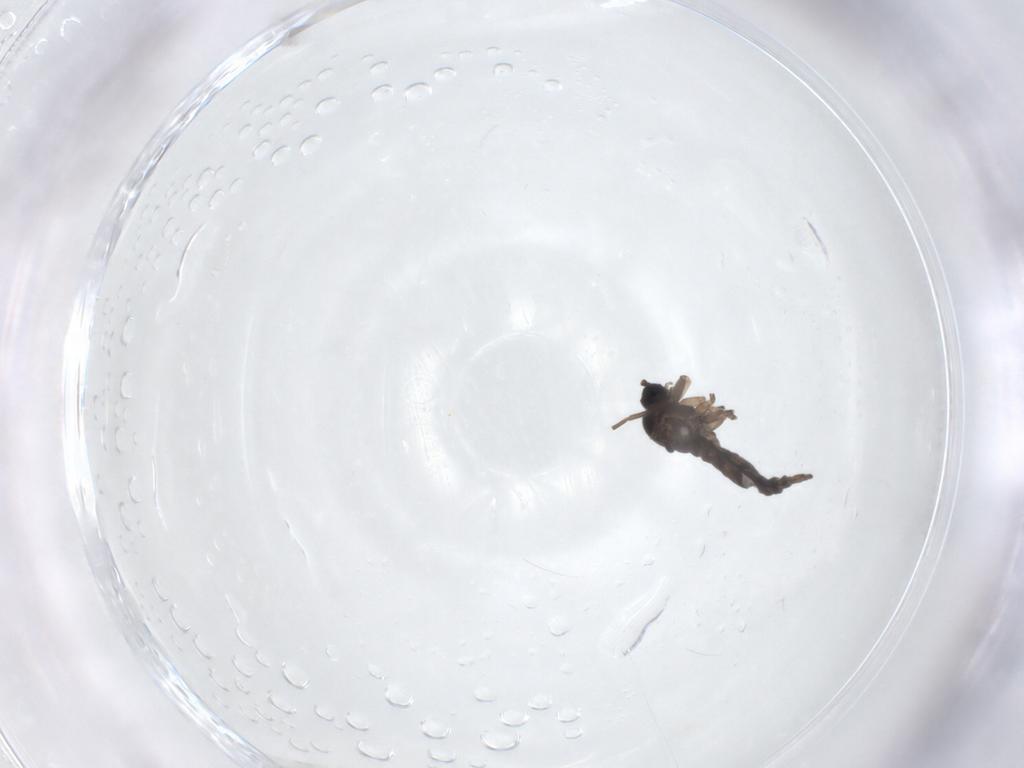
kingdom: Animalia
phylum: Arthropoda
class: Insecta
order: Diptera
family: Sciaridae
